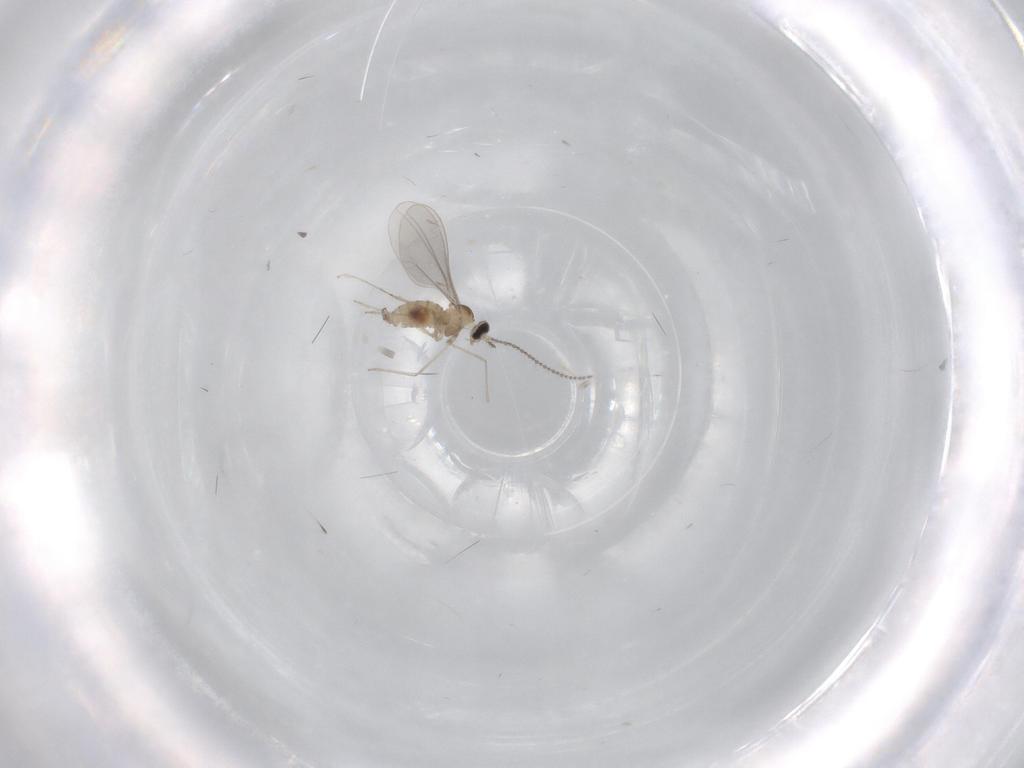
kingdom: Animalia
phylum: Arthropoda
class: Insecta
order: Diptera
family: Cecidomyiidae
